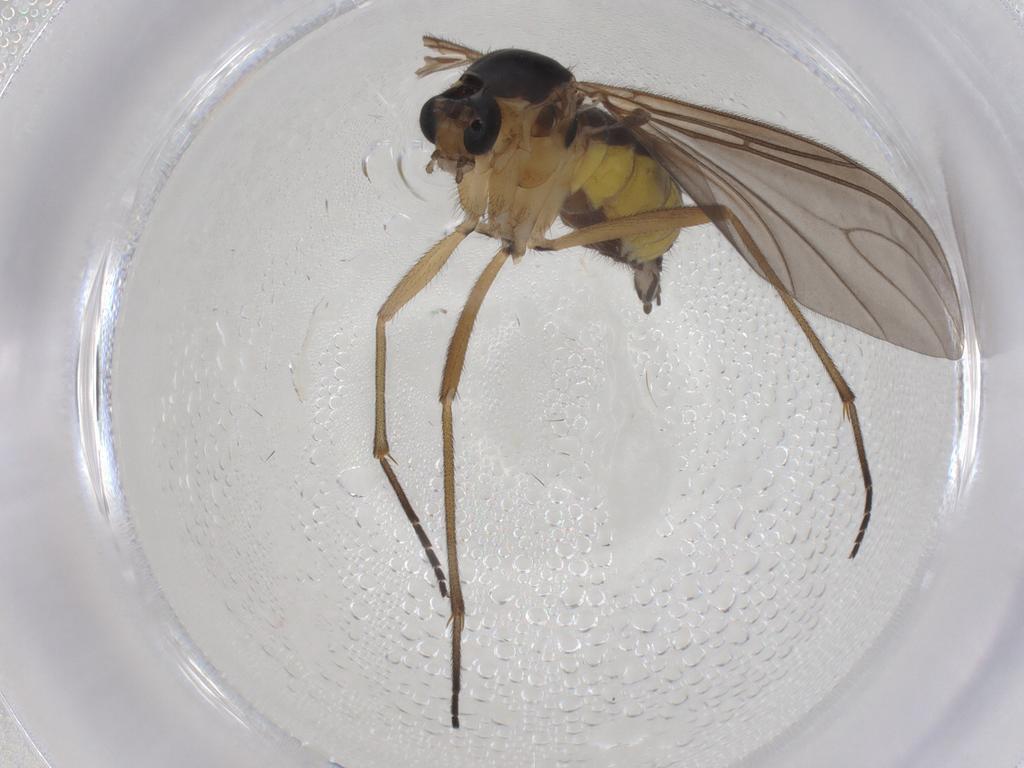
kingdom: Animalia
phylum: Arthropoda
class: Insecta
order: Diptera
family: Sciaridae
